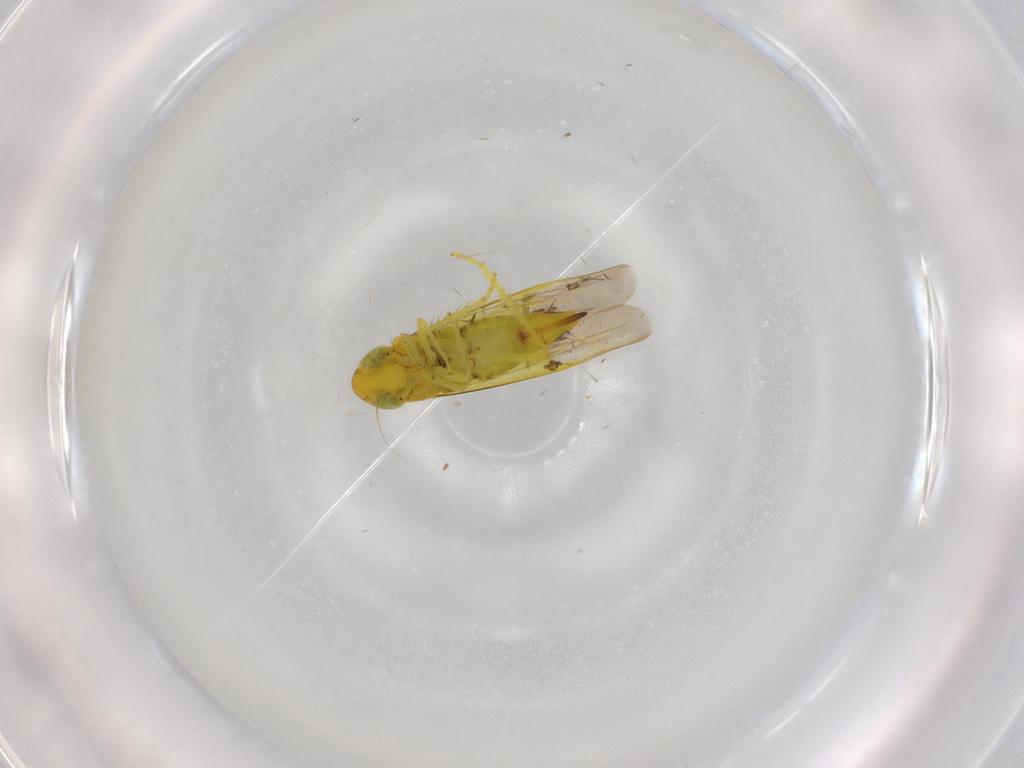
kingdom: Animalia
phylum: Arthropoda
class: Insecta
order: Hemiptera
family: Cicadellidae
